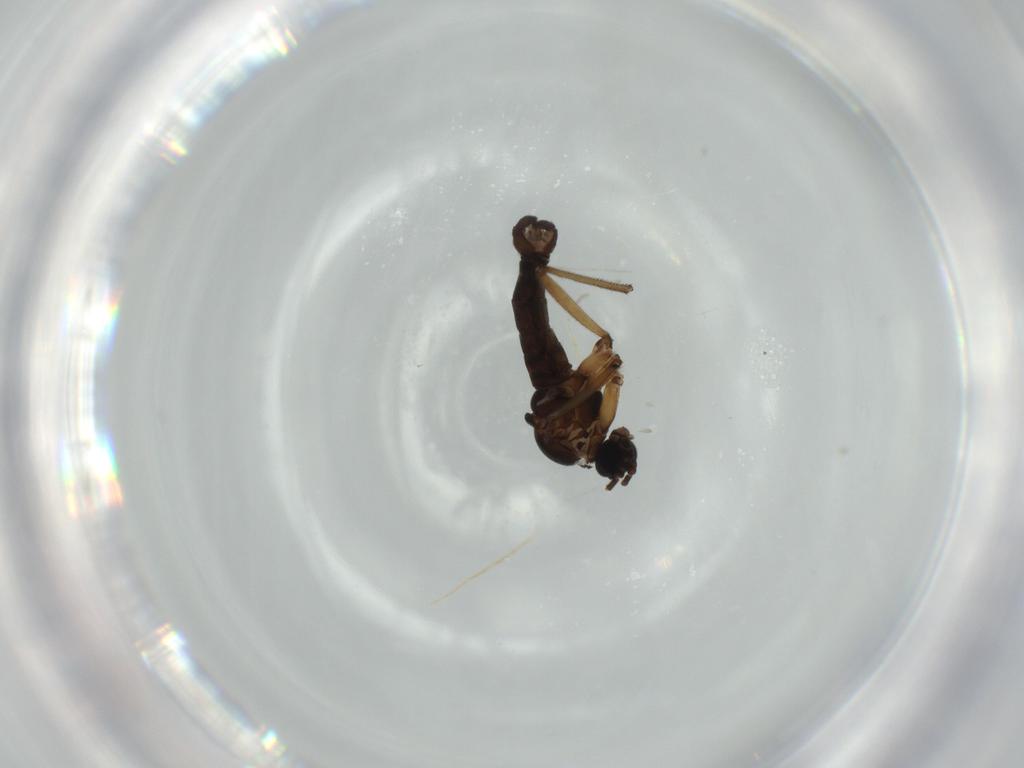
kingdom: Animalia
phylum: Arthropoda
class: Insecta
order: Diptera
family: Sciaridae
